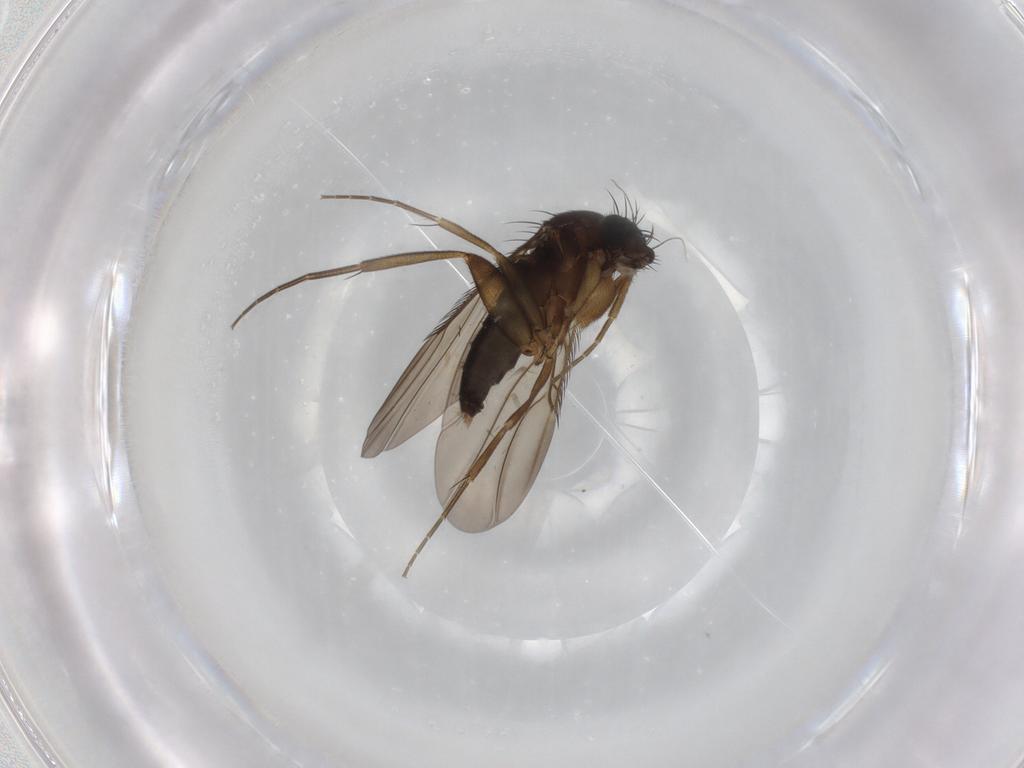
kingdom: Animalia
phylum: Arthropoda
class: Insecta
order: Diptera
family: Phoridae
